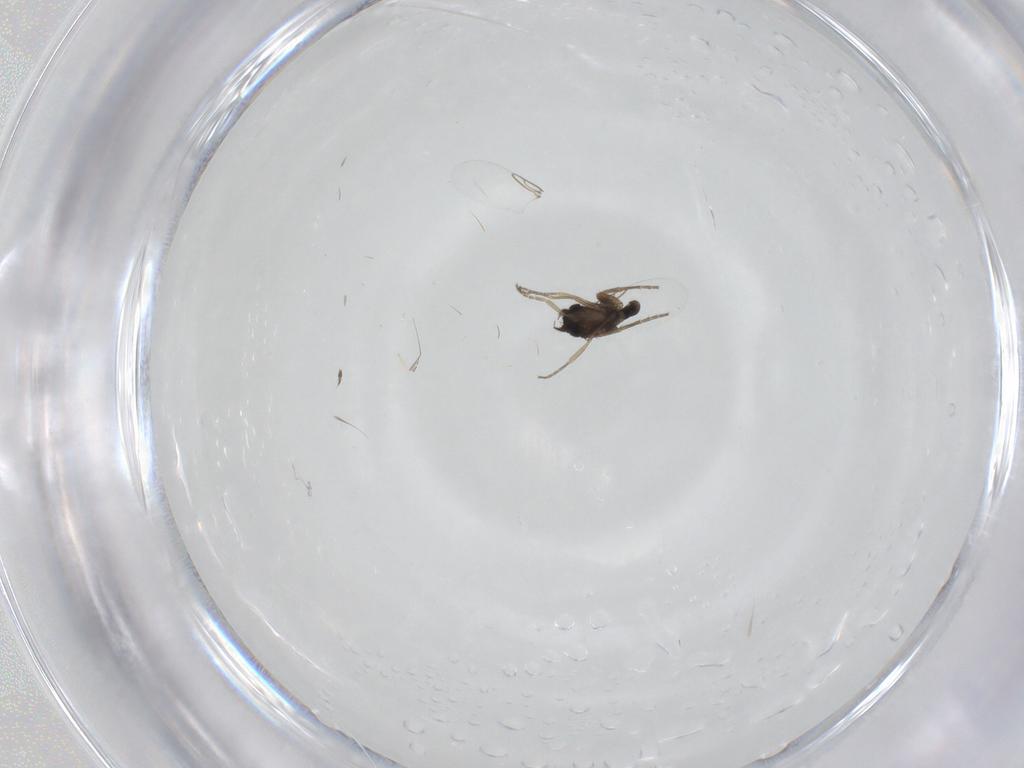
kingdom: Animalia
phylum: Arthropoda
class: Insecta
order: Diptera
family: Phoridae
